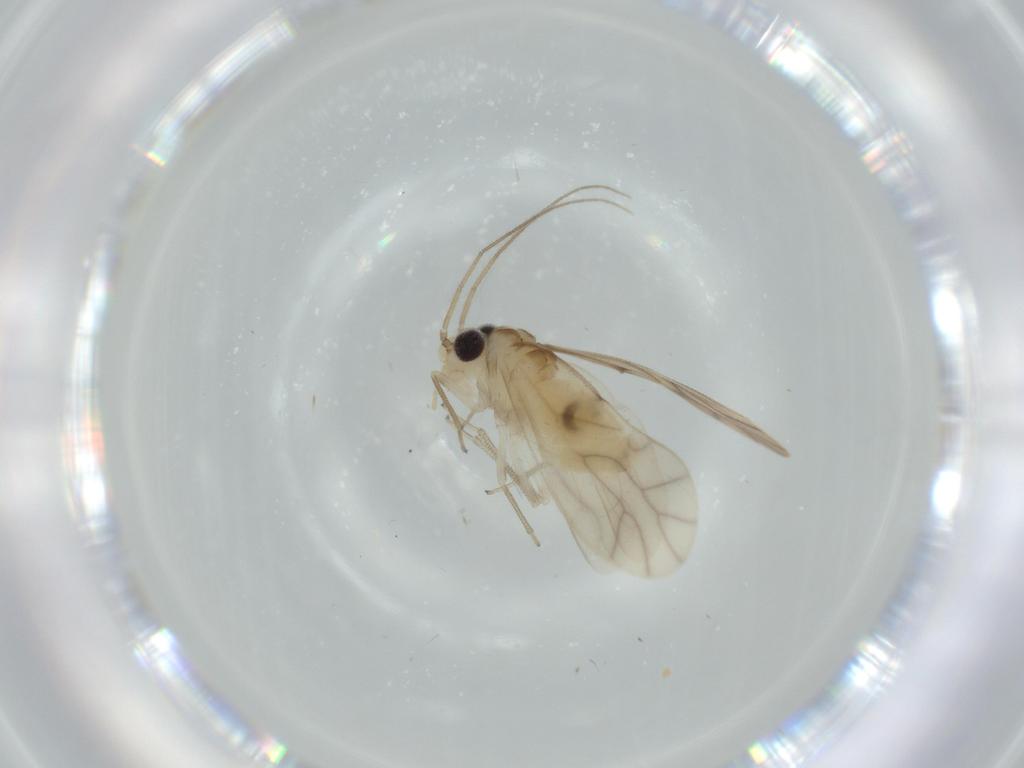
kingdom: Animalia
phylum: Arthropoda
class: Insecta
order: Psocodea
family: Caeciliusidae
